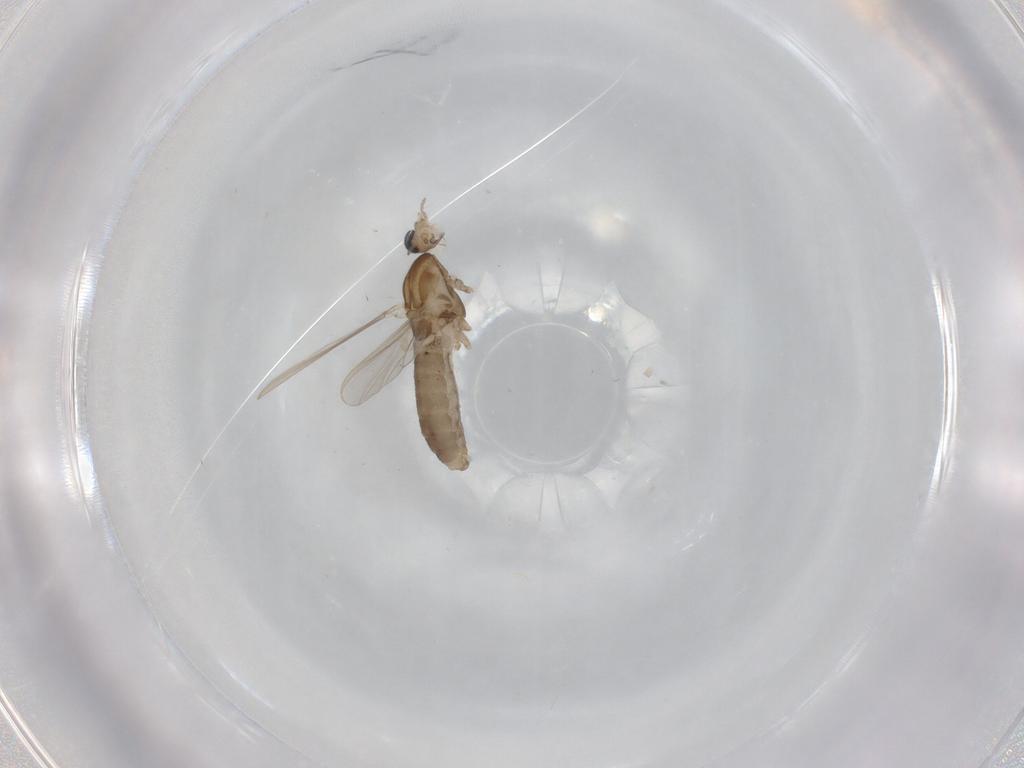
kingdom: Animalia
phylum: Arthropoda
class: Insecta
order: Diptera
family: Chironomidae
